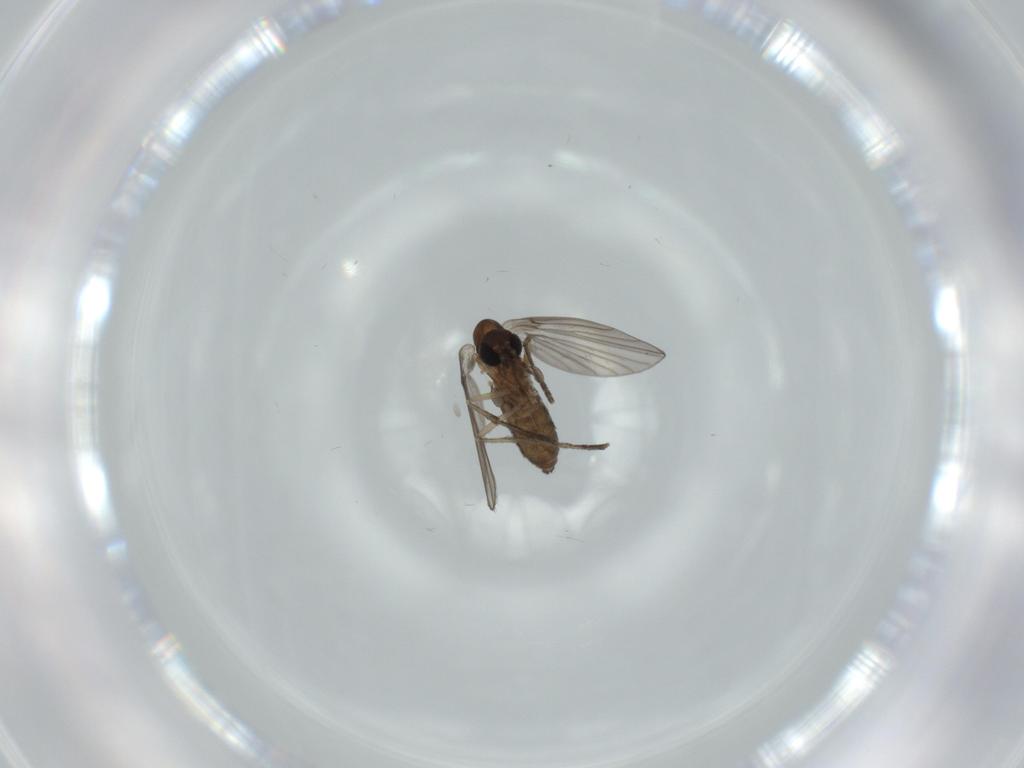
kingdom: Animalia
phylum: Arthropoda
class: Insecta
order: Diptera
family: Psychodidae
